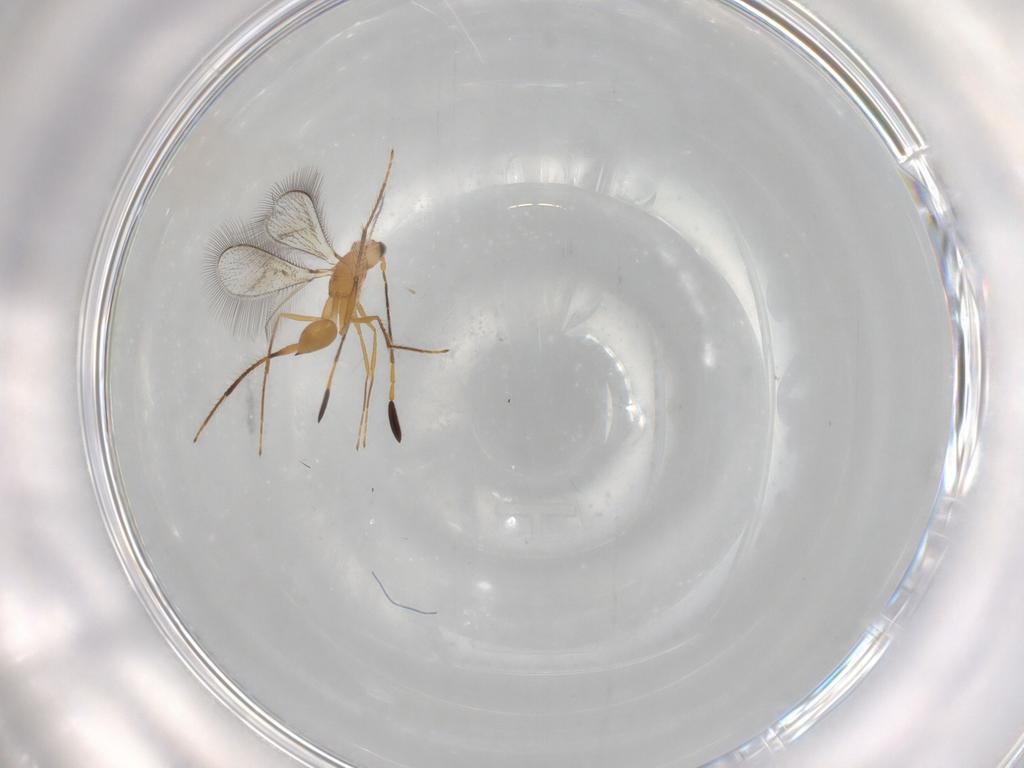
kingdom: Animalia
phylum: Arthropoda
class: Insecta
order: Hymenoptera
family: Mymaridae
